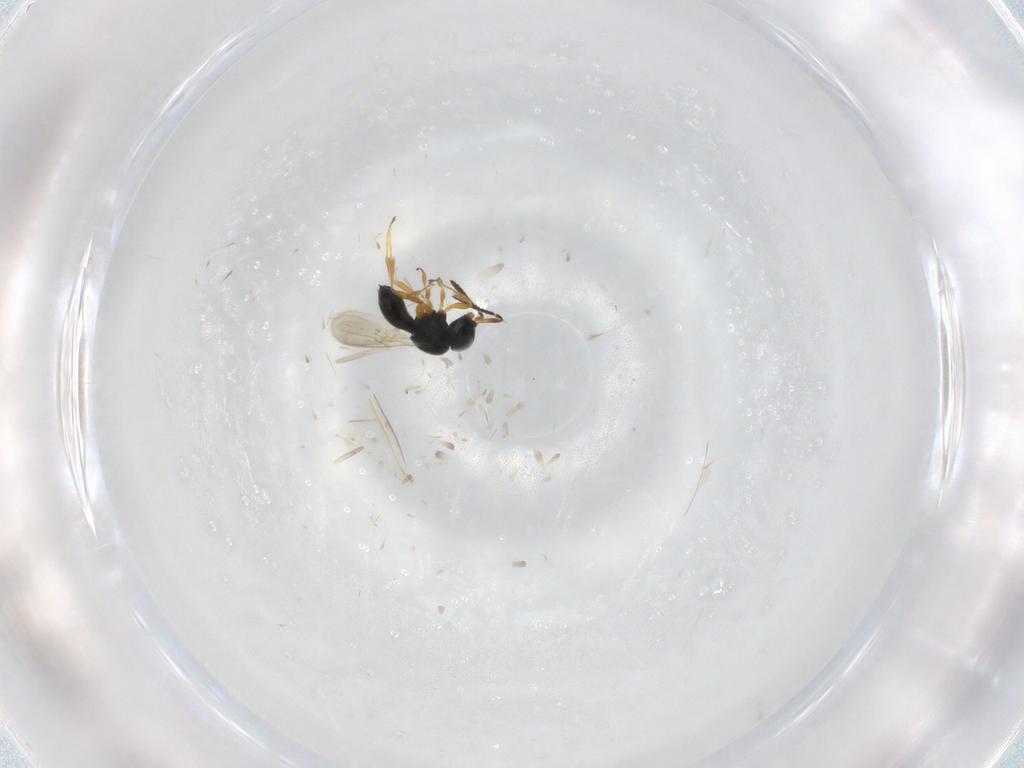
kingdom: Animalia
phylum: Arthropoda
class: Insecta
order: Hymenoptera
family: Scelionidae
